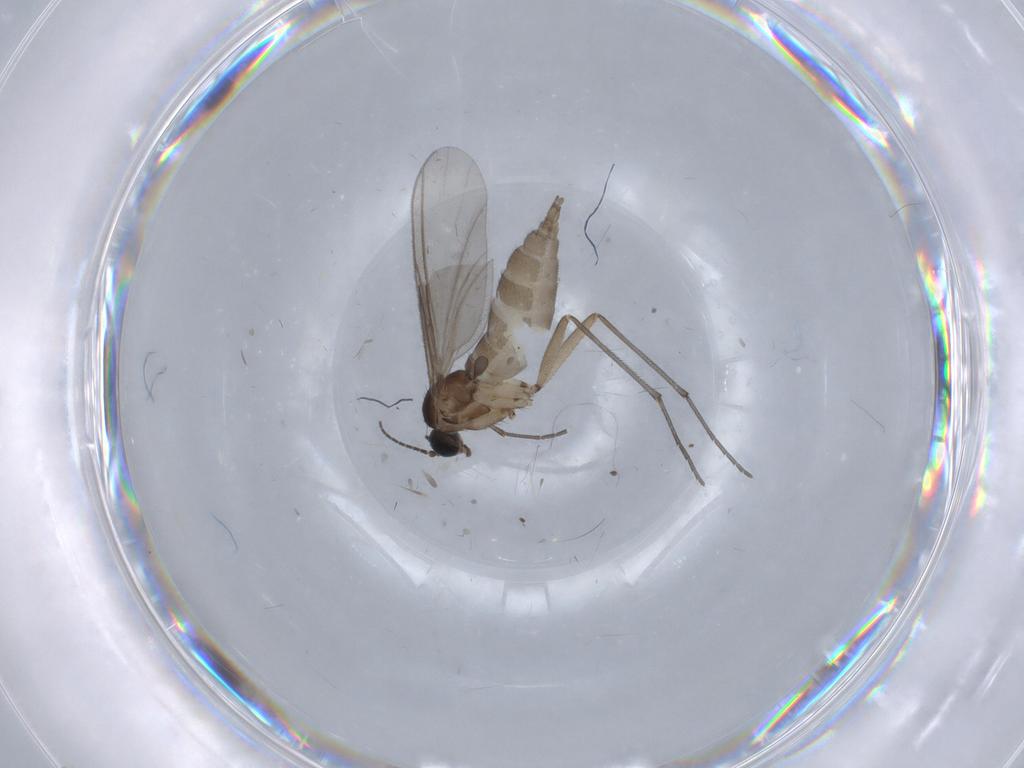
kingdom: Animalia
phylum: Arthropoda
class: Insecta
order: Diptera
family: Sciaridae
